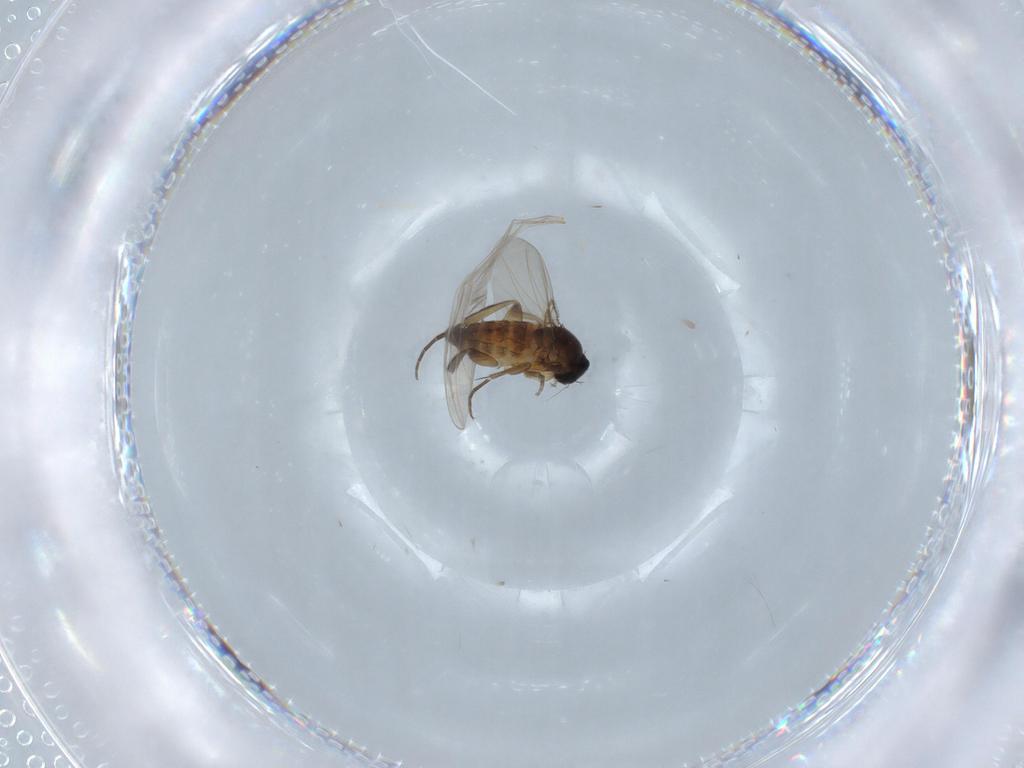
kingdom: Animalia
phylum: Arthropoda
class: Insecta
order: Diptera
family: Phoridae
